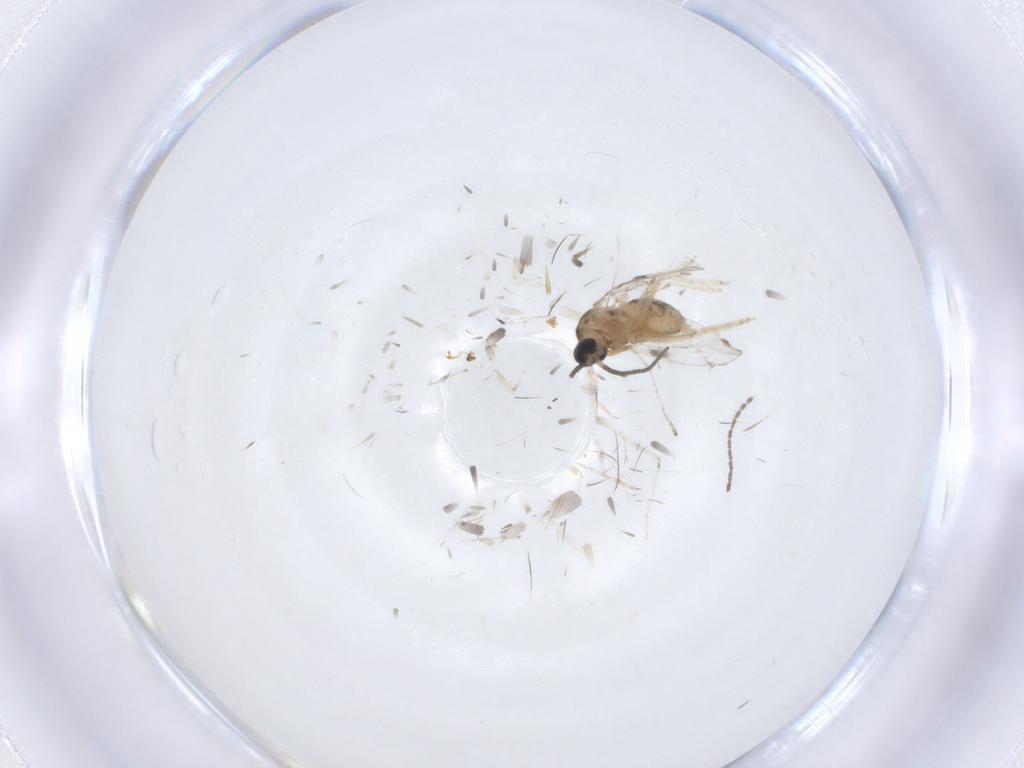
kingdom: Animalia
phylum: Arthropoda
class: Insecta
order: Diptera
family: Cecidomyiidae
